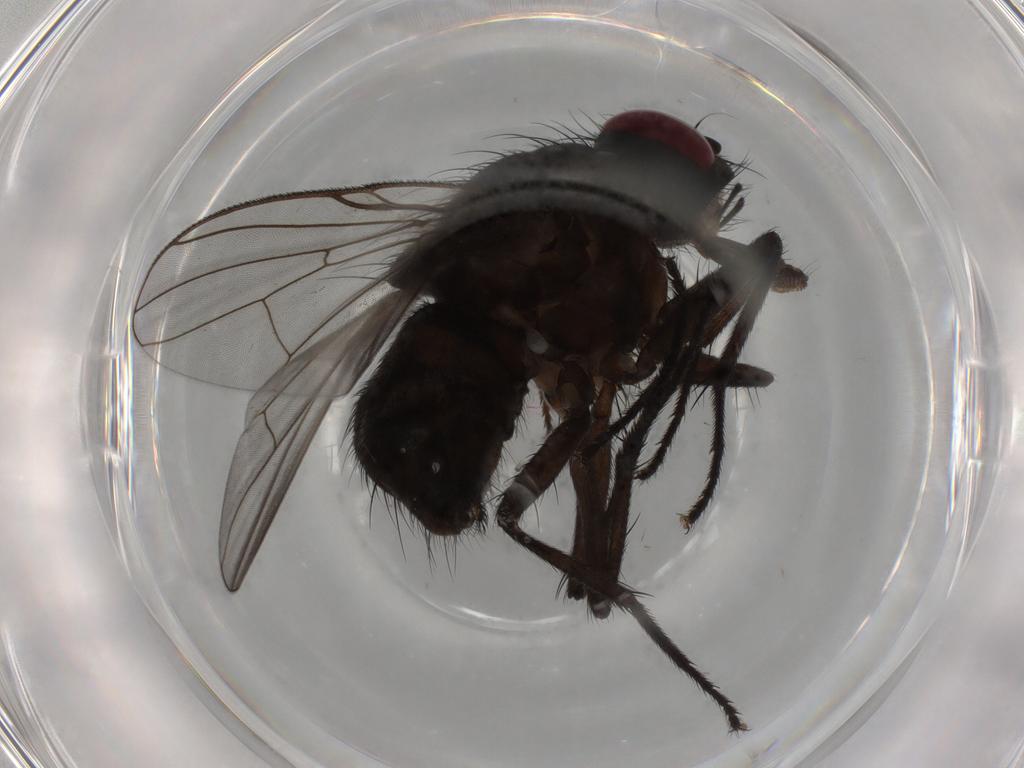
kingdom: Animalia
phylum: Arthropoda
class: Insecta
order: Diptera
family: Muscidae
